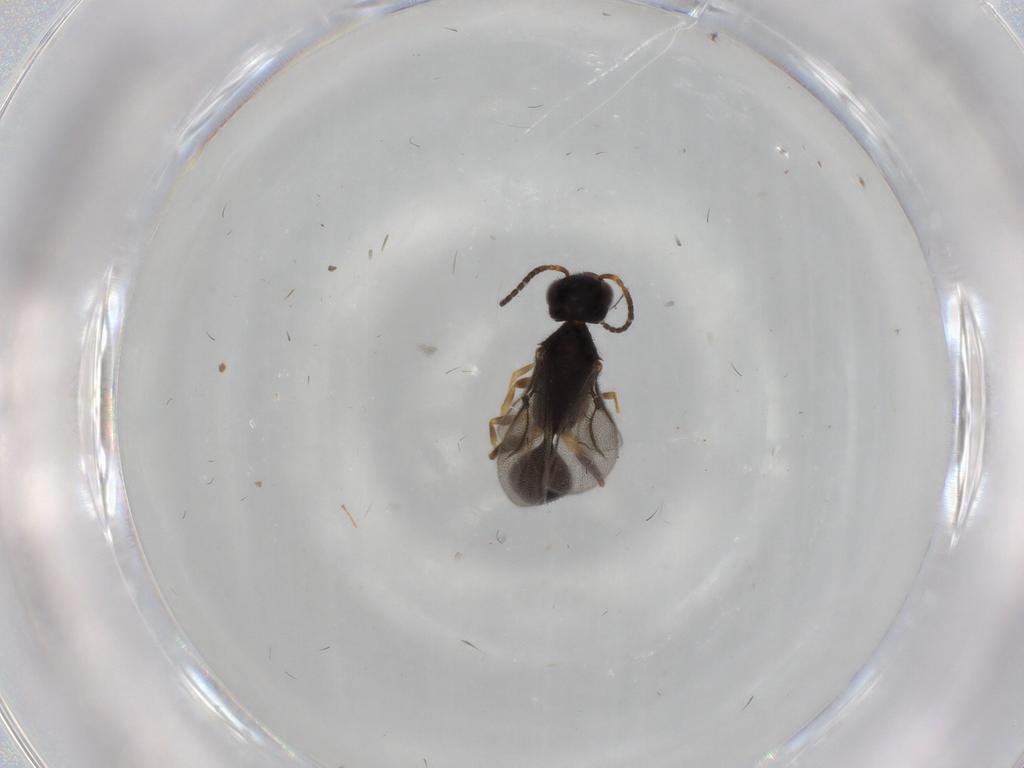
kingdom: Animalia
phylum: Arthropoda
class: Insecta
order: Hymenoptera
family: Bethylidae
